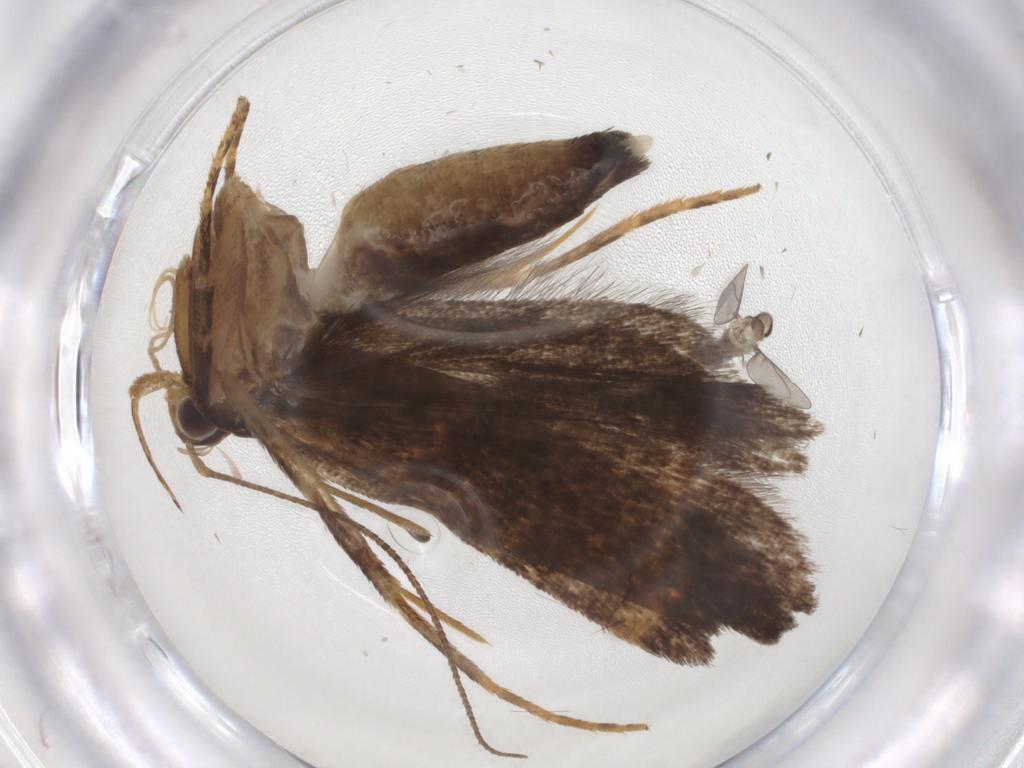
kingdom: Animalia
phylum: Arthropoda
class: Insecta
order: Lepidoptera
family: Gelechiidae
